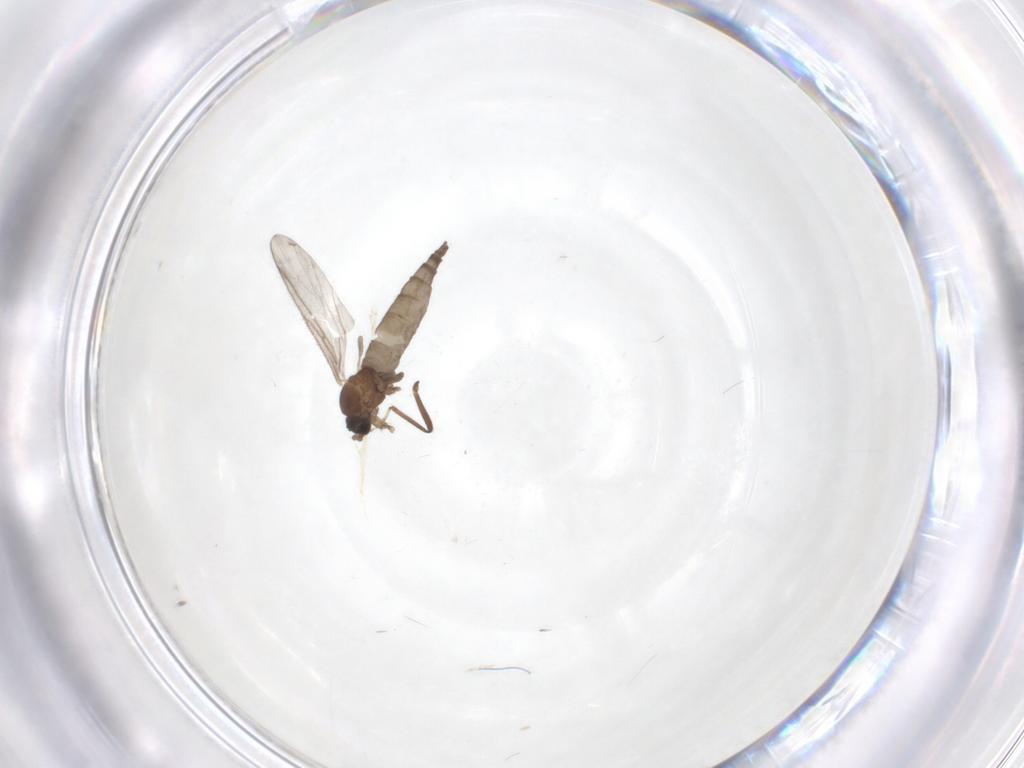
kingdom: Animalia
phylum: Arthropoda
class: Insecta
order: Diptera
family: Sciaridae
